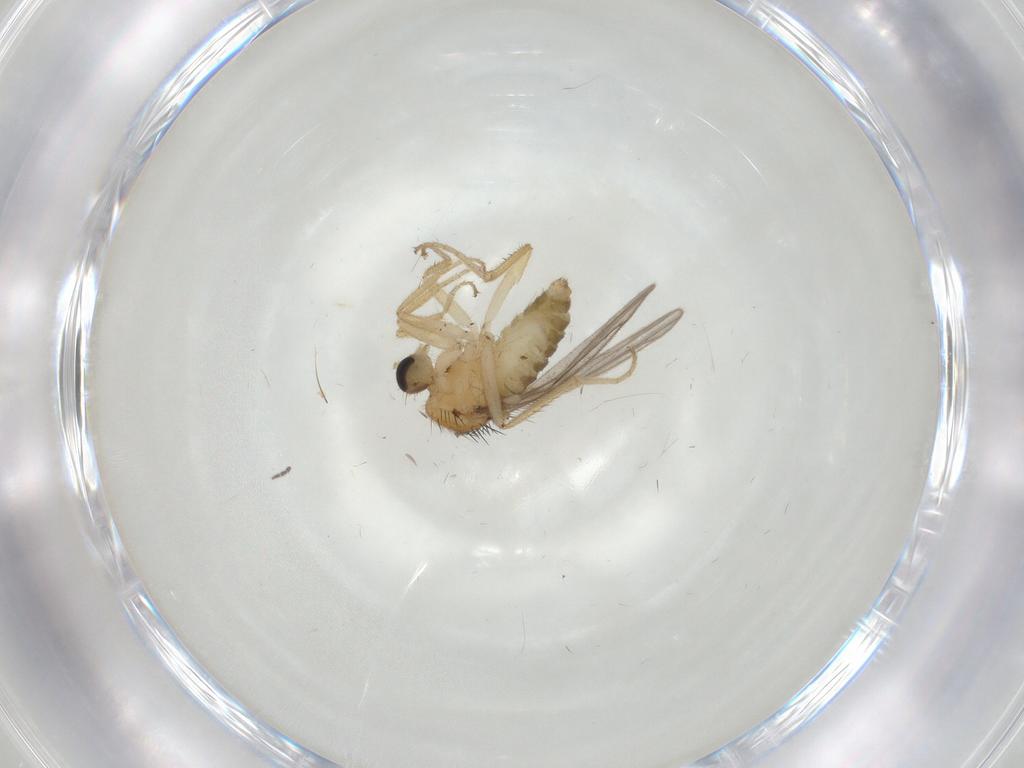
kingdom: Animalia
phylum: Arthropoda
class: Insecta
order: Diptera
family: Hybotidae
